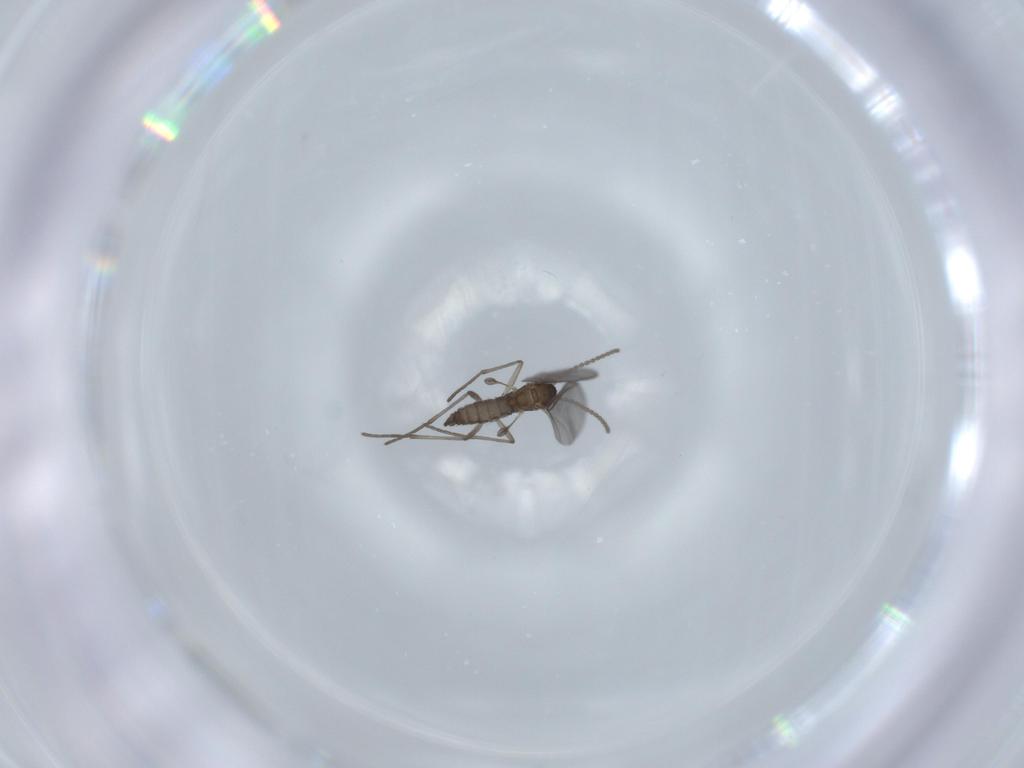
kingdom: Animalia
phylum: Arthropoda
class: Insecta
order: Diptera
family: Sciaridae
